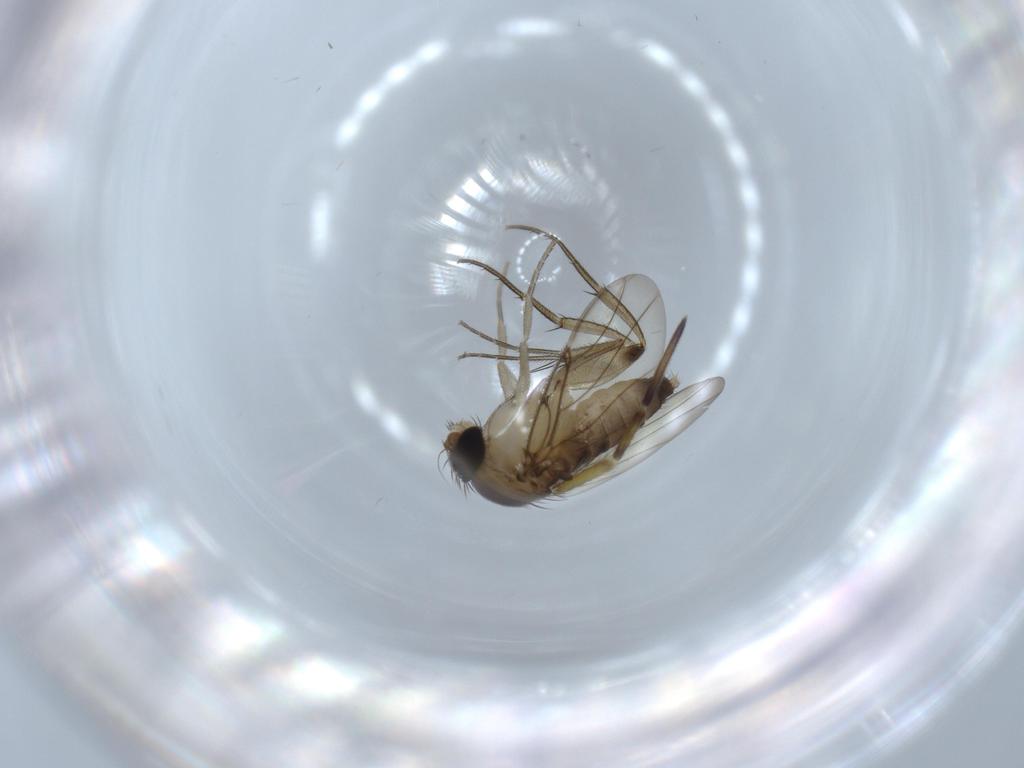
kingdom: Animalia
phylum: Arthropoda
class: Insecta
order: Diptera
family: Phoridae
